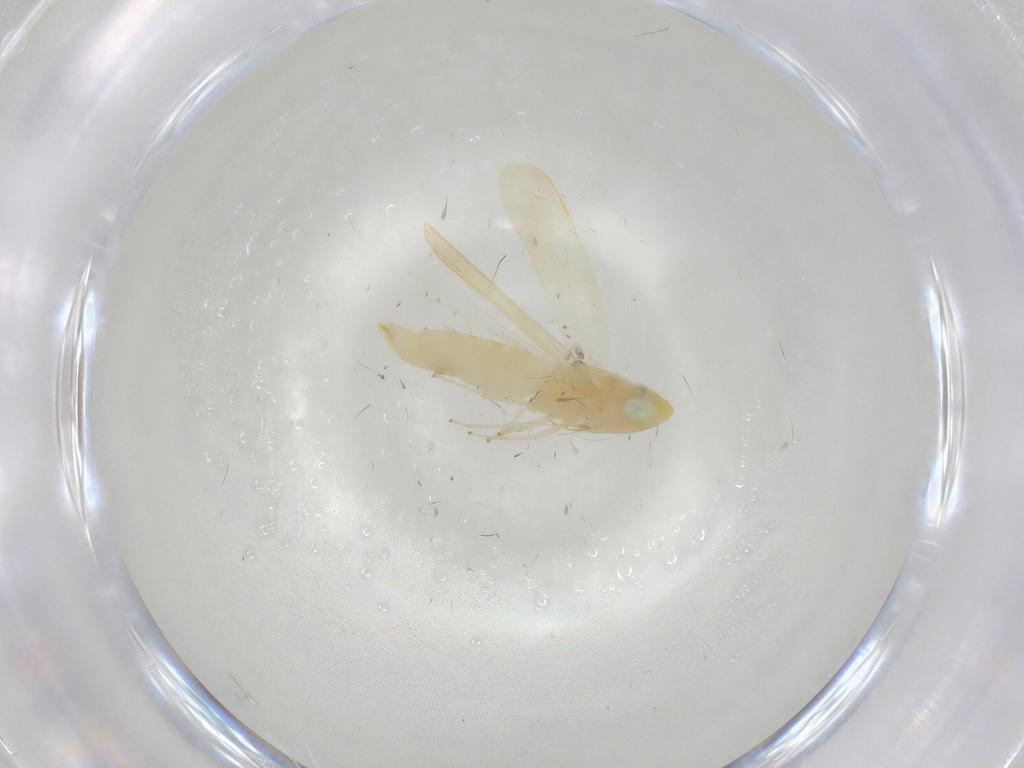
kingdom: Animalia
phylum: Arthropoda
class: Insecta
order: Hemiptera
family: Cicadellidae
